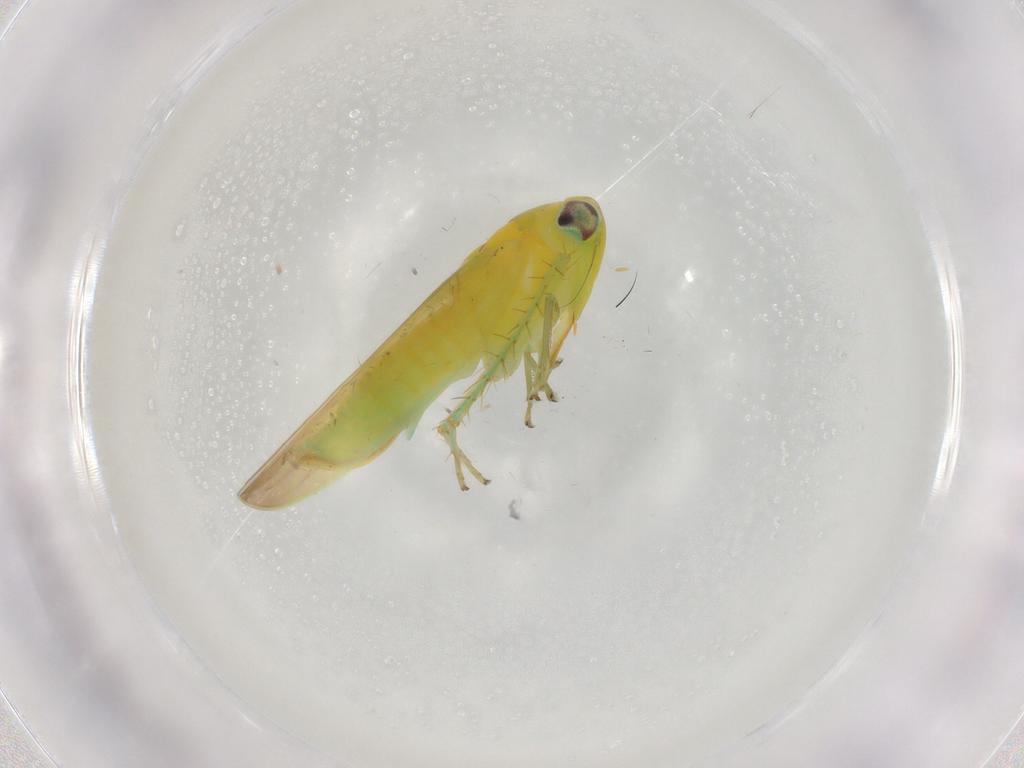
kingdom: Animalia
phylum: Arthropoda
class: Insecta
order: Hemiptera
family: Cicadellidae
